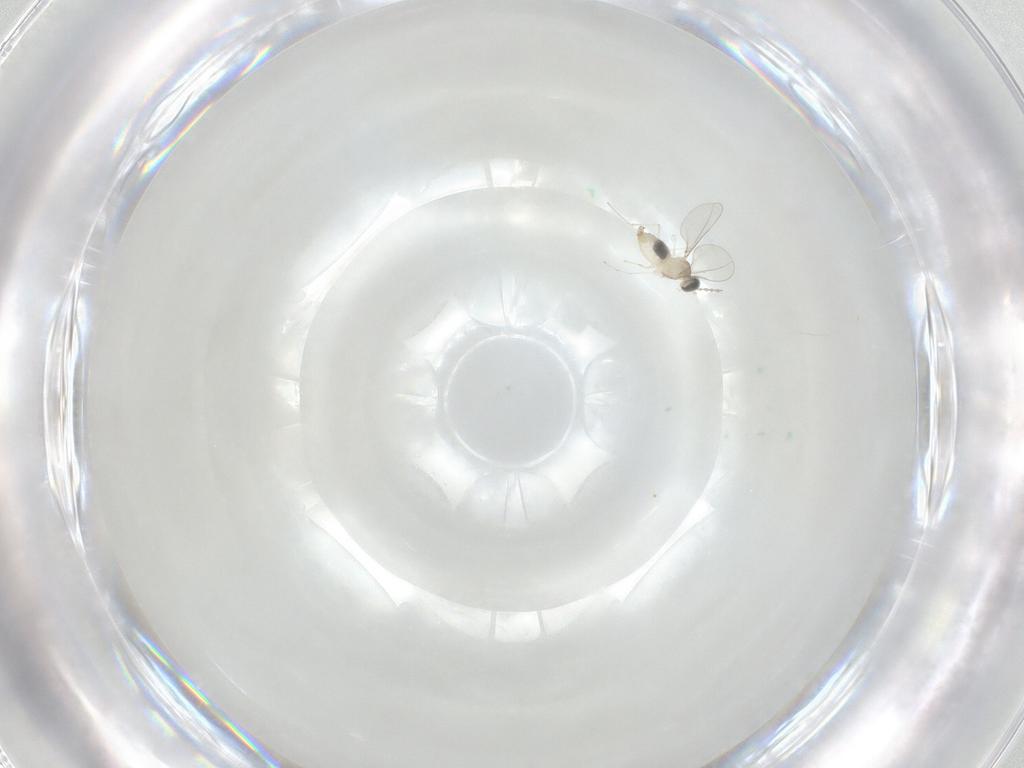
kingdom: Animalia
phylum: Arthropoda
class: Insecta
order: Diptera
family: Cecidomyiidae
